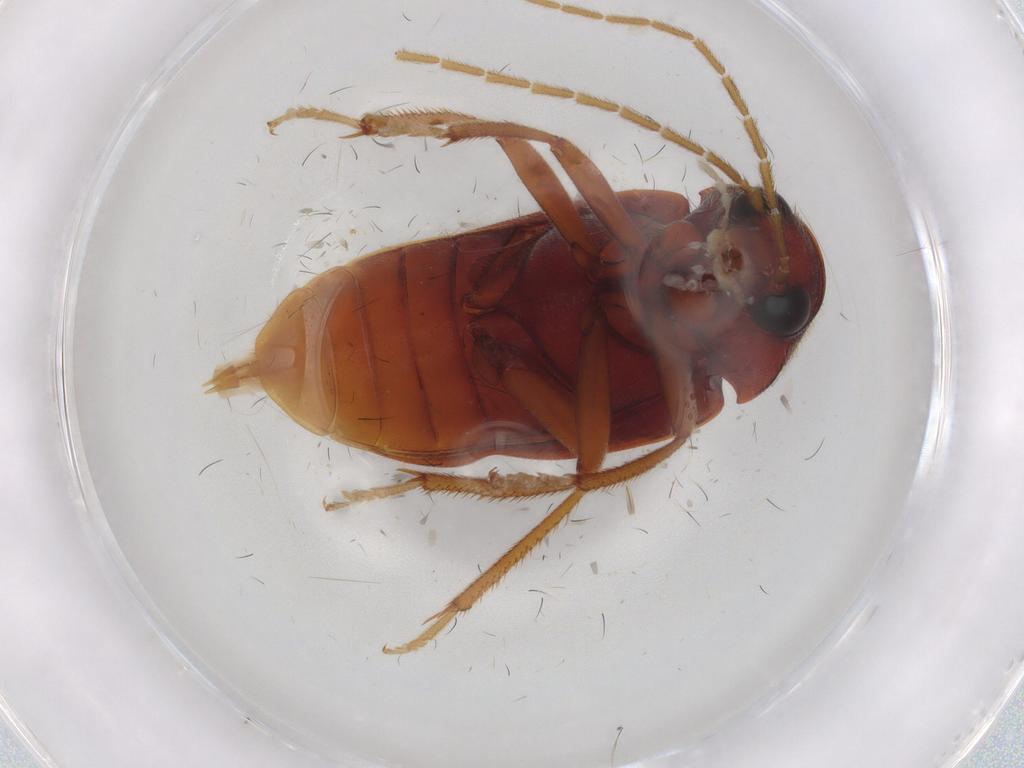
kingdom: Animalia
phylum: Arthropoda
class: Insecta
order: Coleoptera
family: Ptilodactylidae
